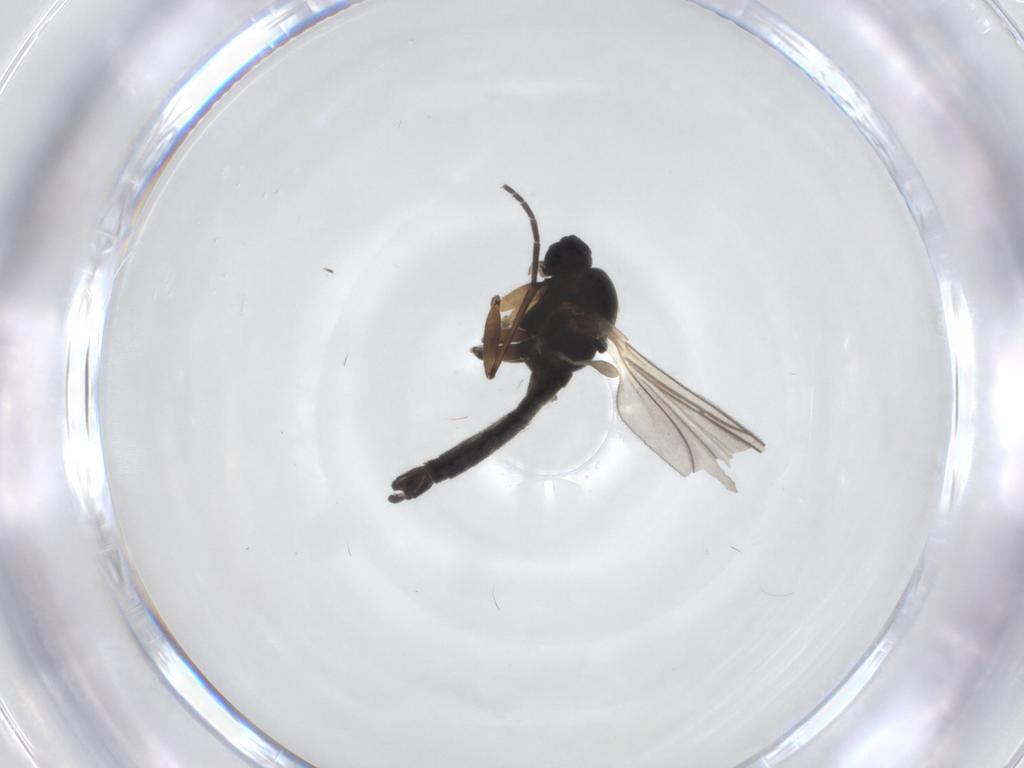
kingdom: Animalia
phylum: Arthropoda
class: Insecta
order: Diptera
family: Sciaridae
